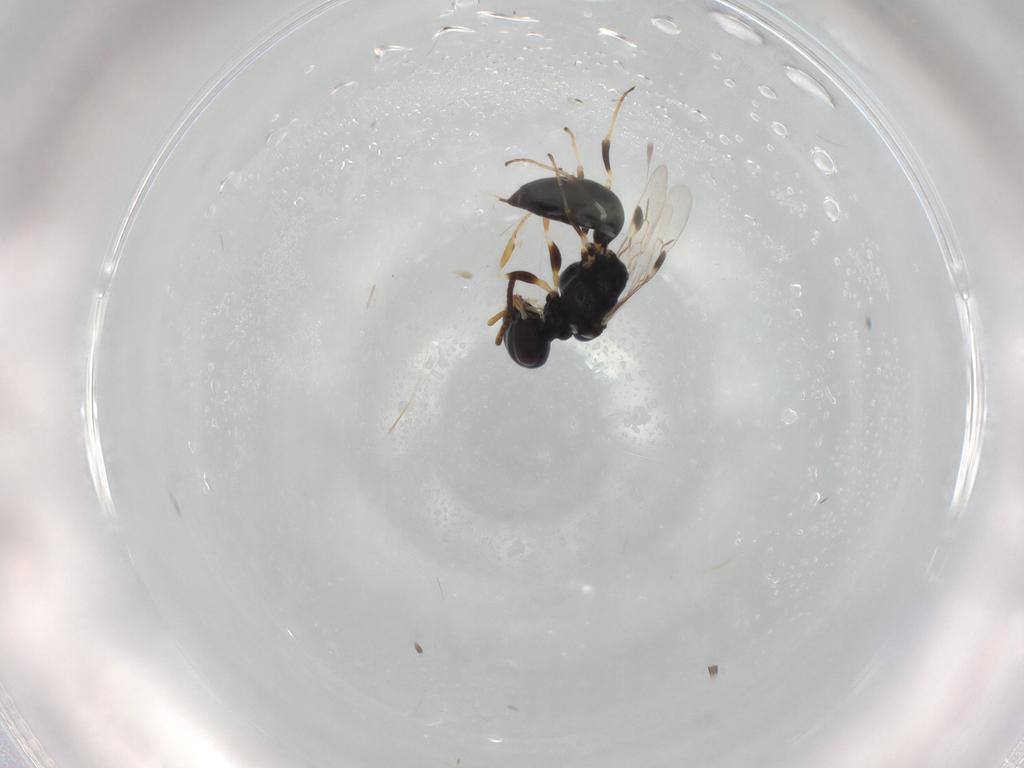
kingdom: Animalia
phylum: Arthropoda
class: Insecta
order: Hymenoptera
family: Pemphredonidae
